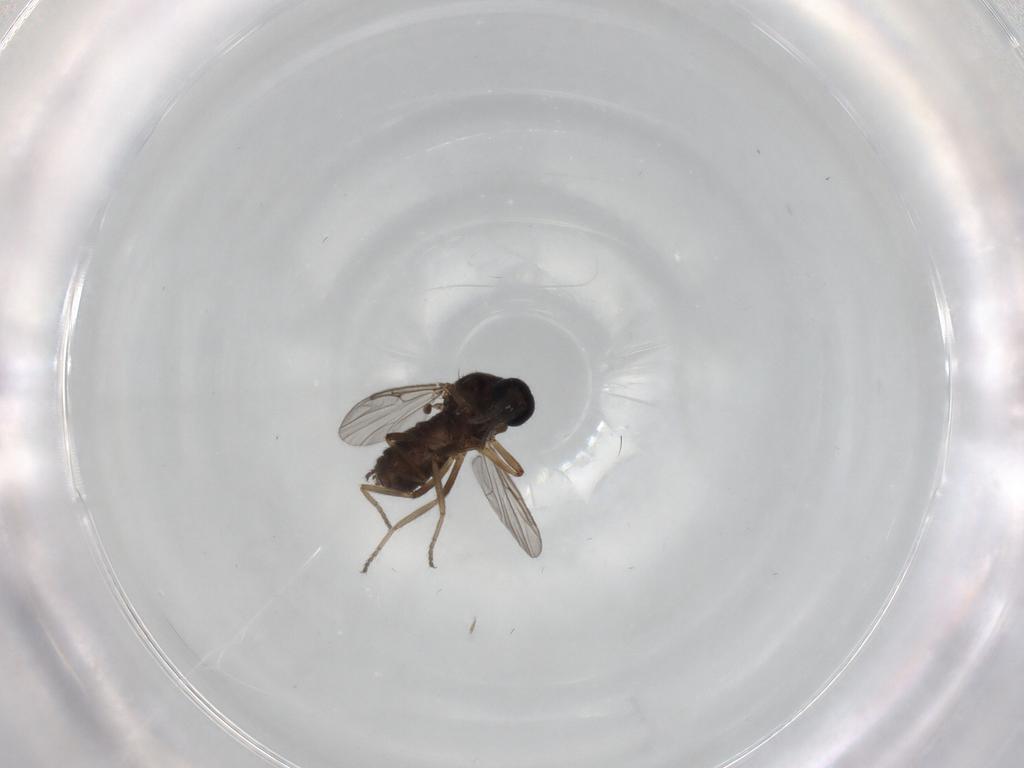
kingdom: Animalia
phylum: Arthropoda
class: Insecta
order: Diptera
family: Ceratopogonidae
